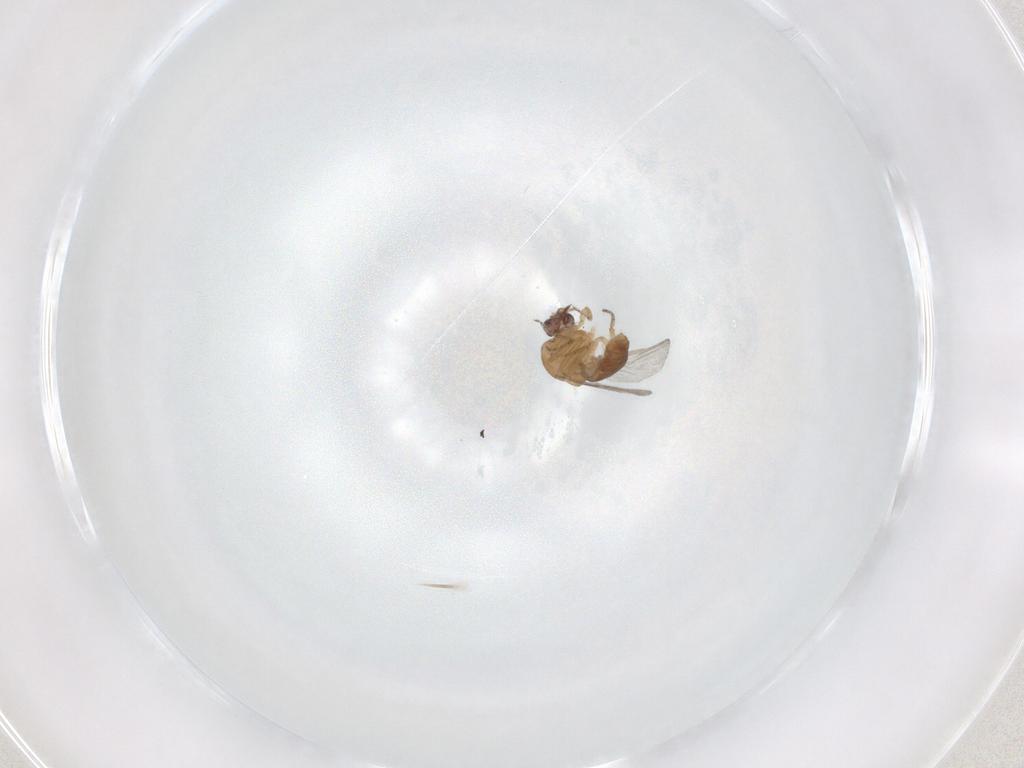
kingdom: Animalia
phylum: Arthropoda
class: Insecta
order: Diptera
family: Ceratopogonidae
